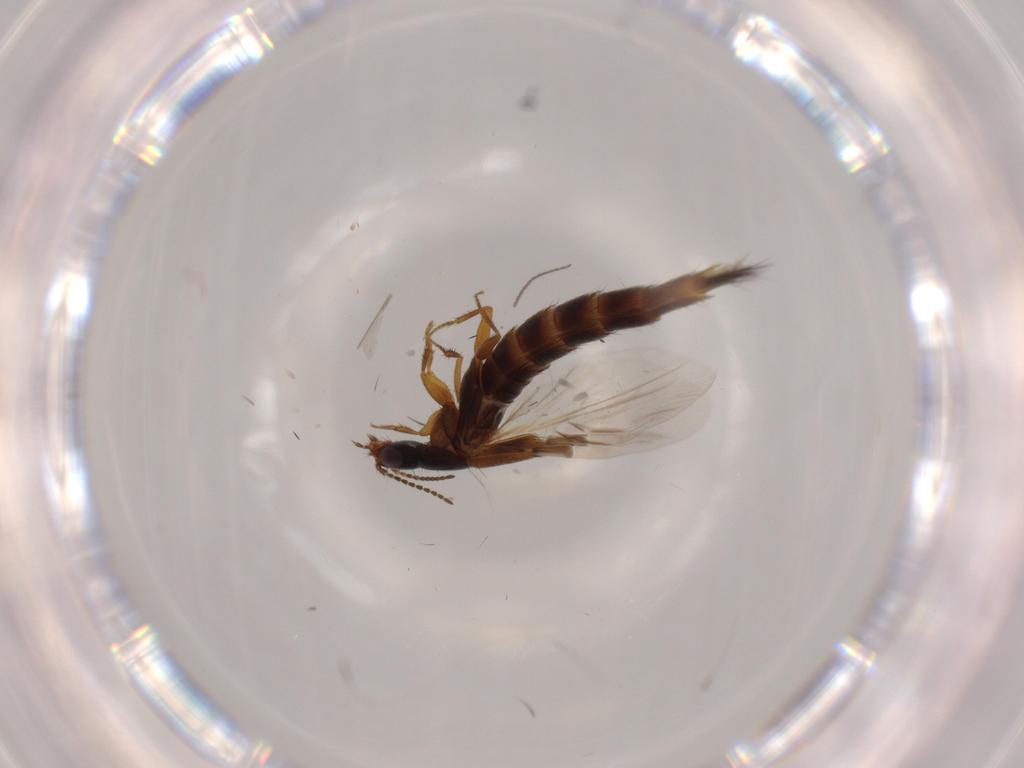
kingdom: Animalia
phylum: Arthropoda
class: Insecta
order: Coleoptera
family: Staphylinidae
